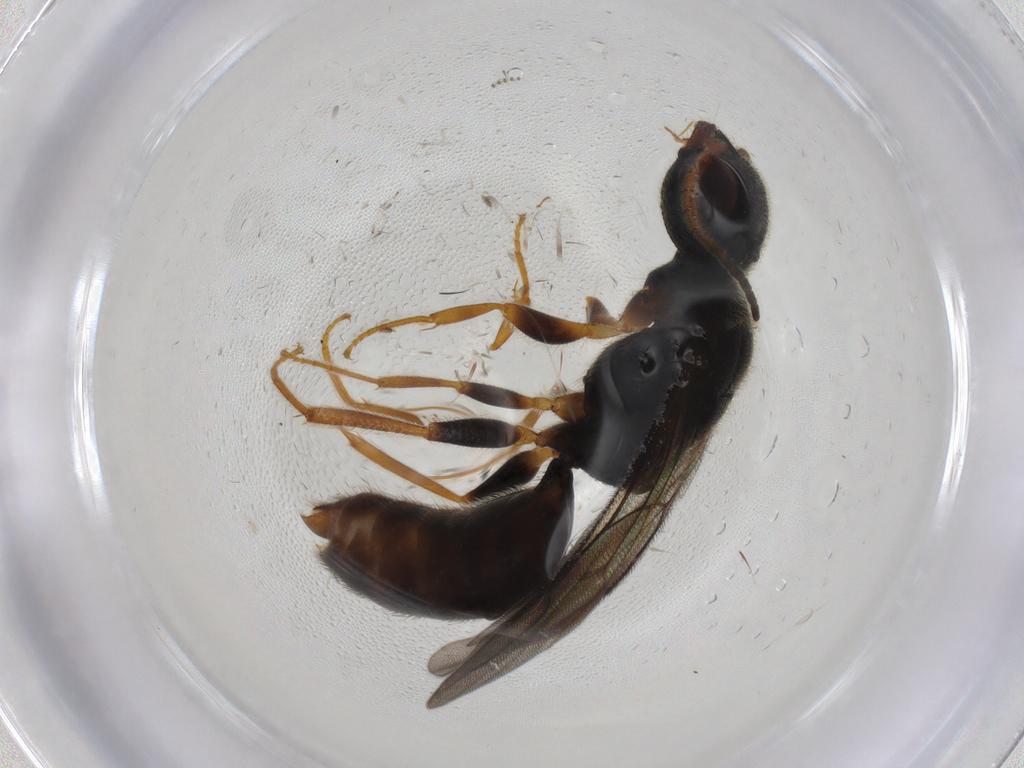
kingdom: Animalia
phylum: Arthropoda
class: Insecta
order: Hymenoptera
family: Bethylidae
